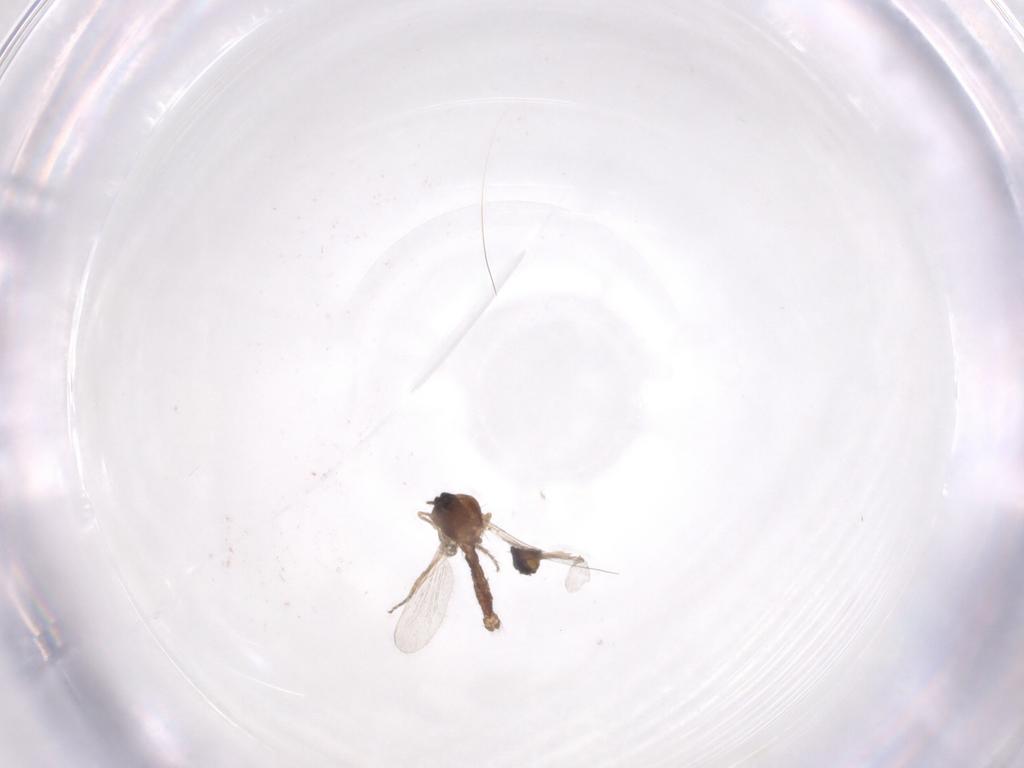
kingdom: Animalia
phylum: Arthropoda
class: Insecta
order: Diptera
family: Ceratopogonidae
